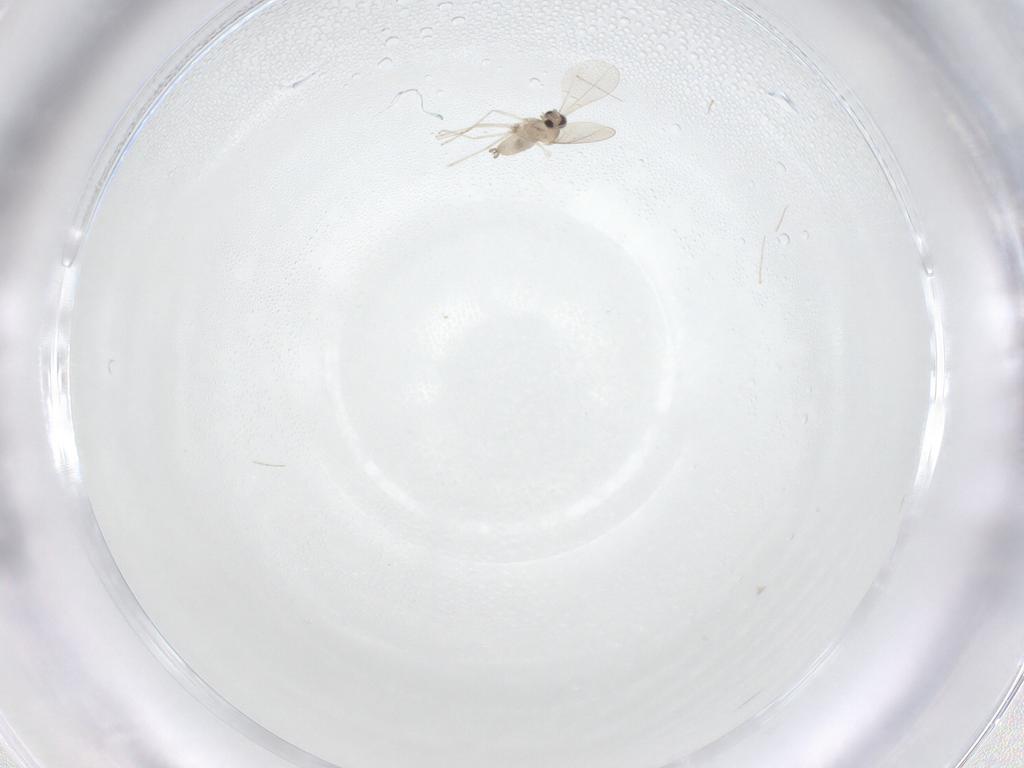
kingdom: Animalia
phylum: Arthropoda
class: Insecta
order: Diptera
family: Cecidomyiidae
